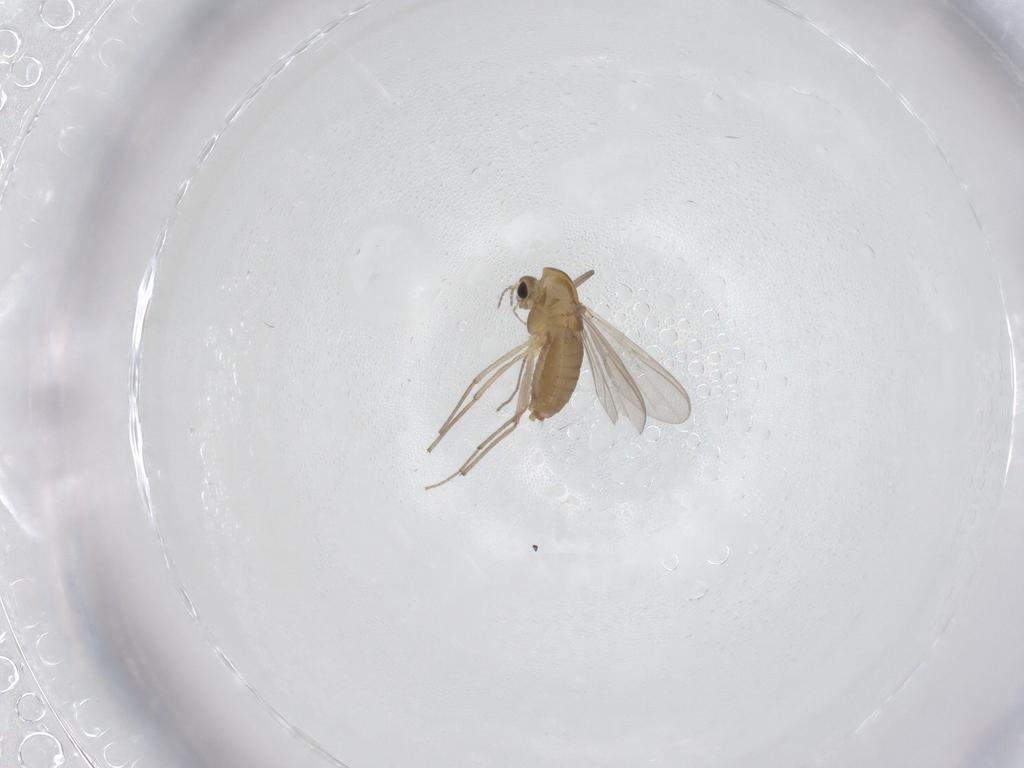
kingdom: Animalia
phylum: Arthropoda
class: Insecta
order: Diptera
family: Chironomidae
